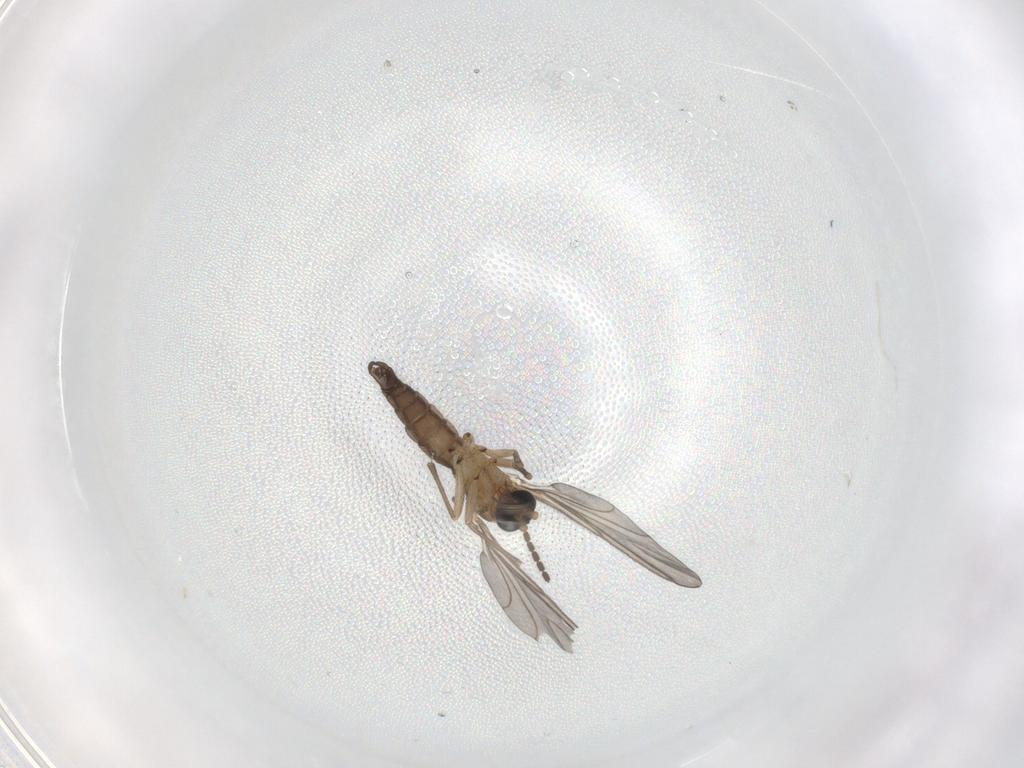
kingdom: Animalia
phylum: Arthropoda
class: Insecta
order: Diptera
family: Sciaridae
